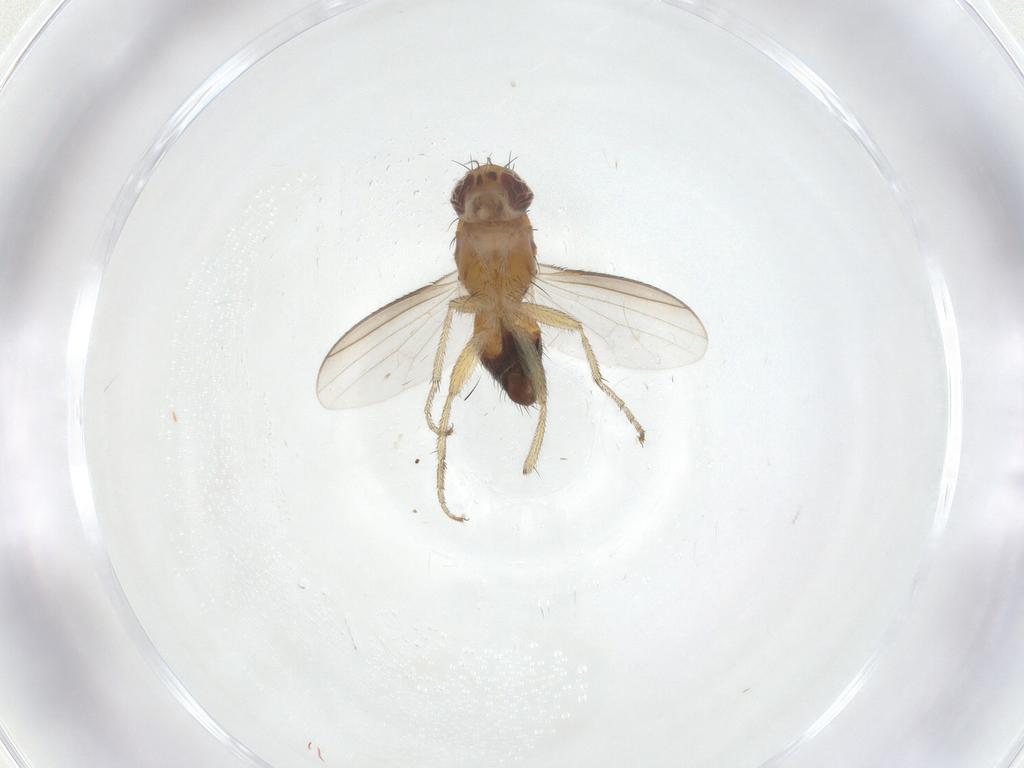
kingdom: Animalia
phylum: Arthropoda
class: Insecta
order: Diptera
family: Heleomyzidae
